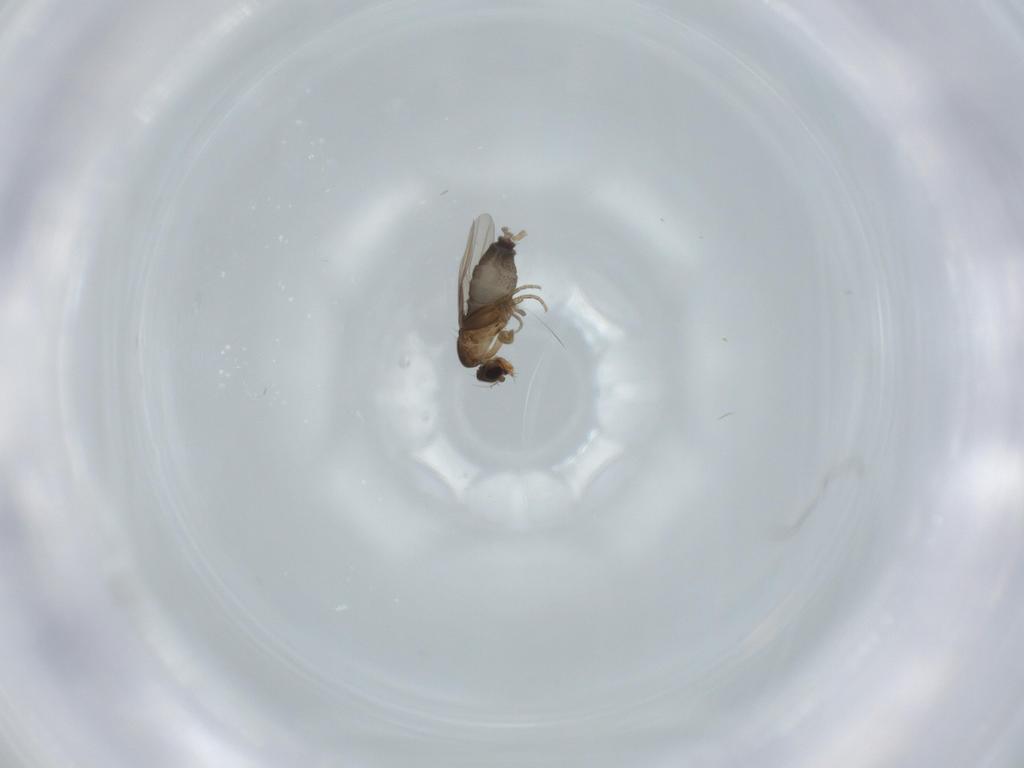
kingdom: Animalia
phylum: Arthropoda
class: Insecta
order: Diptera
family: Phoridae
